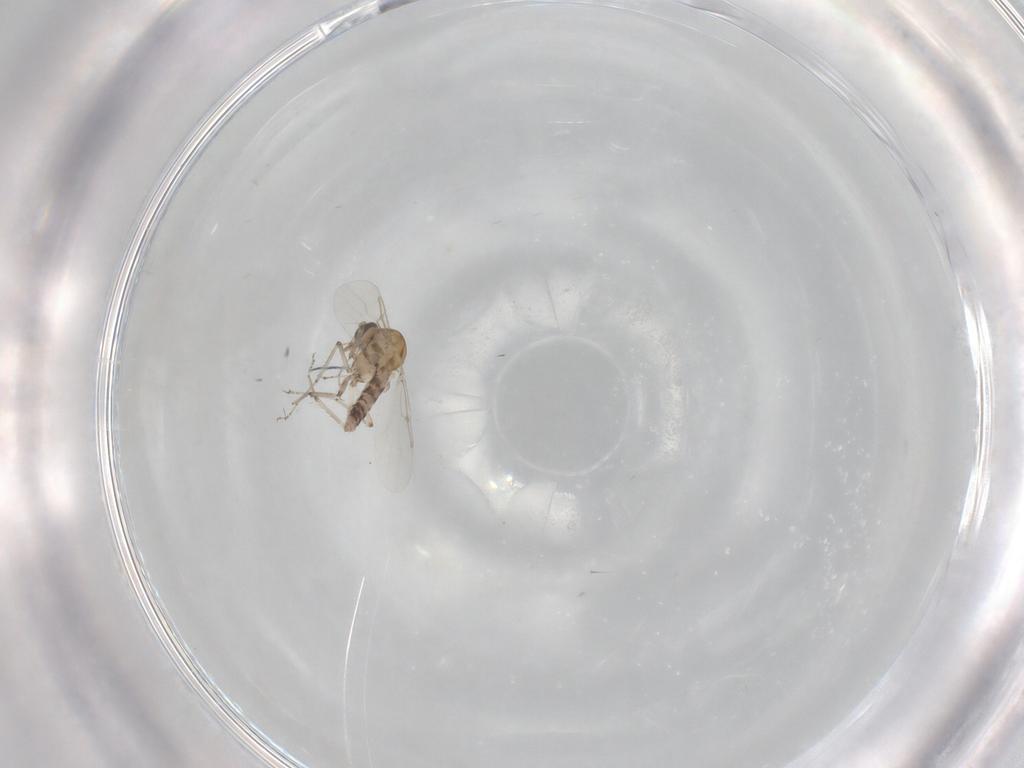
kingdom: Animalia
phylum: Arthropoda
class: Insecta
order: Diptera
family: Ceratopogonidae
